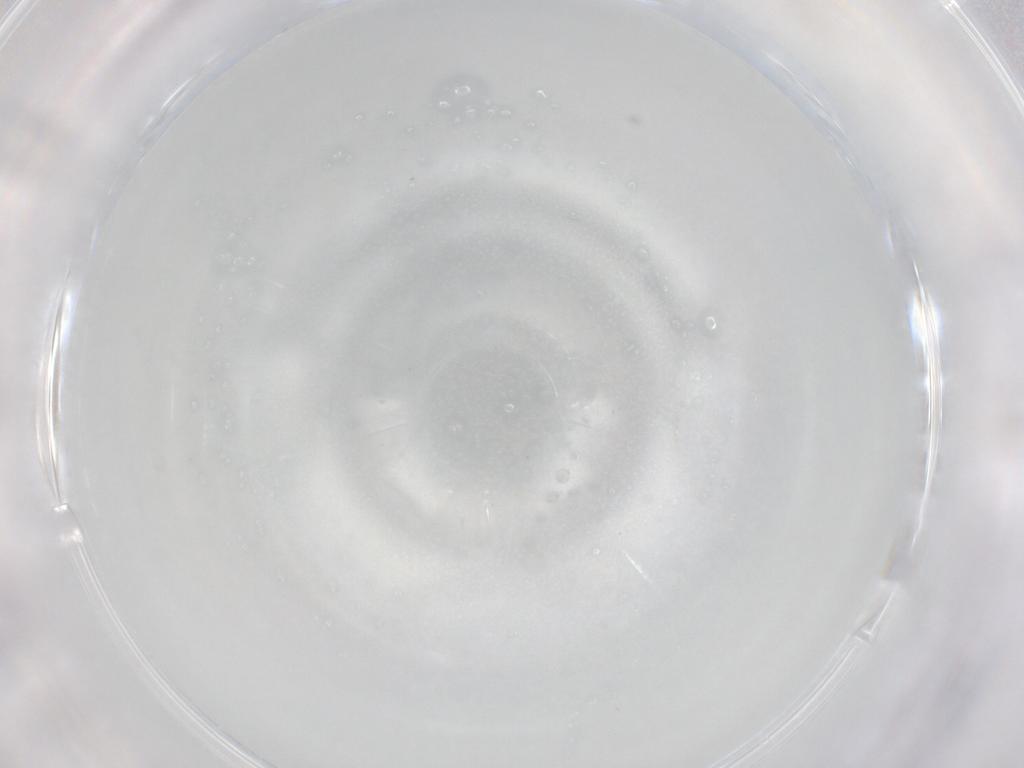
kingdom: Animalia
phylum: Arthropoda
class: Insecta
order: Diptera
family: Cecidomyiidae
